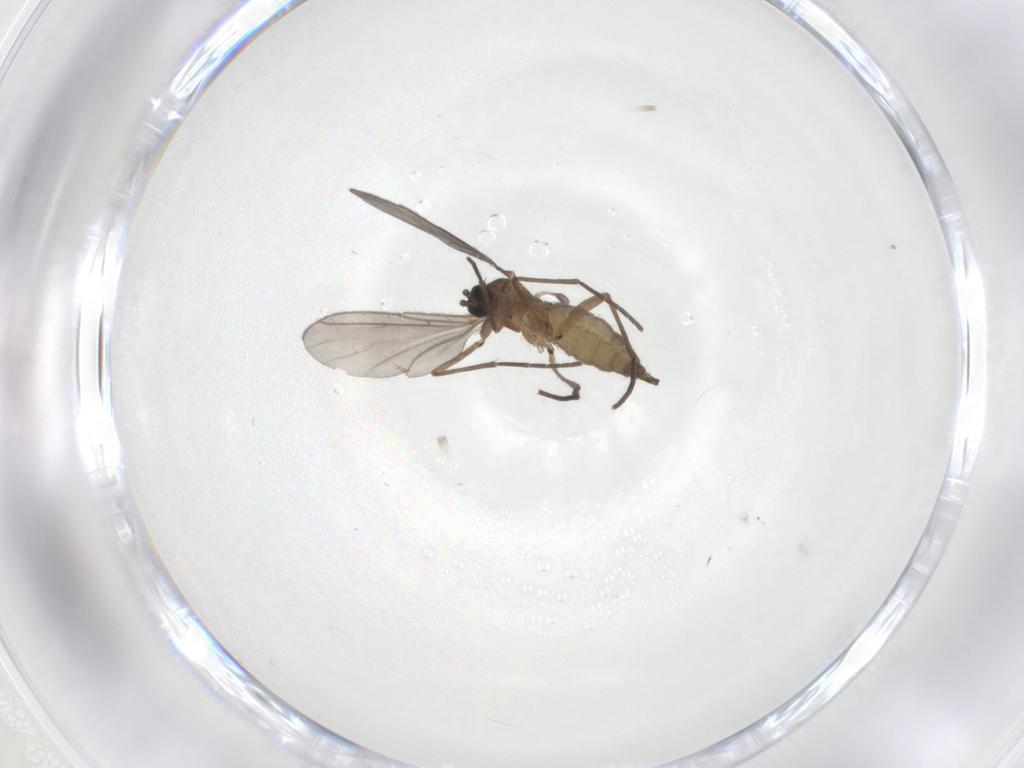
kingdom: Animalia
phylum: Arthropoda
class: Insecta
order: Diptera
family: Sciaridae
